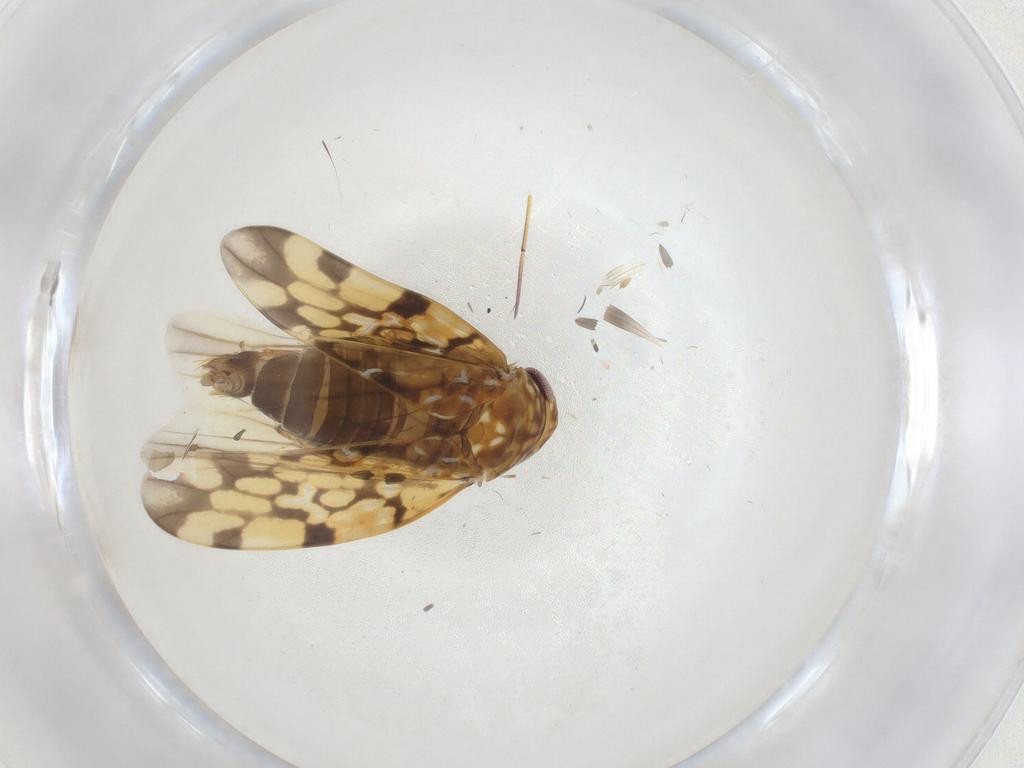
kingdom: Animalia
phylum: Arthropoda
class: Insecta
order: Hemiptera
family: Cicadellidae
